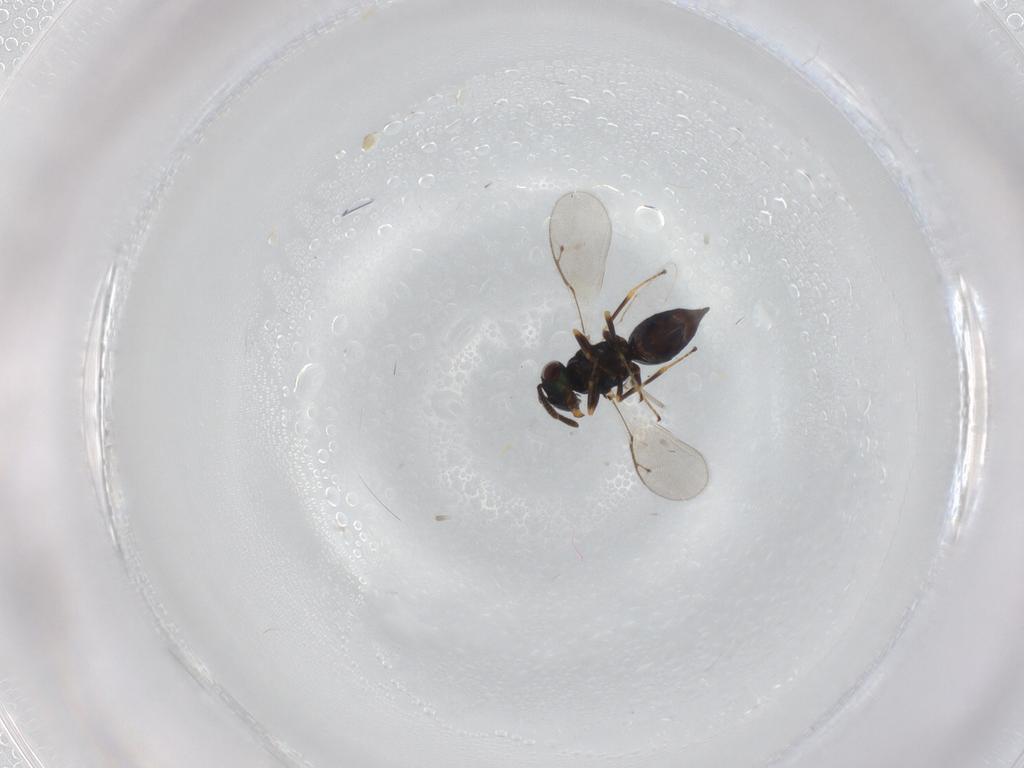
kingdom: Animalia
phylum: Arthropoda
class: Insecta
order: Hymenoptera
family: Pteromalidae
